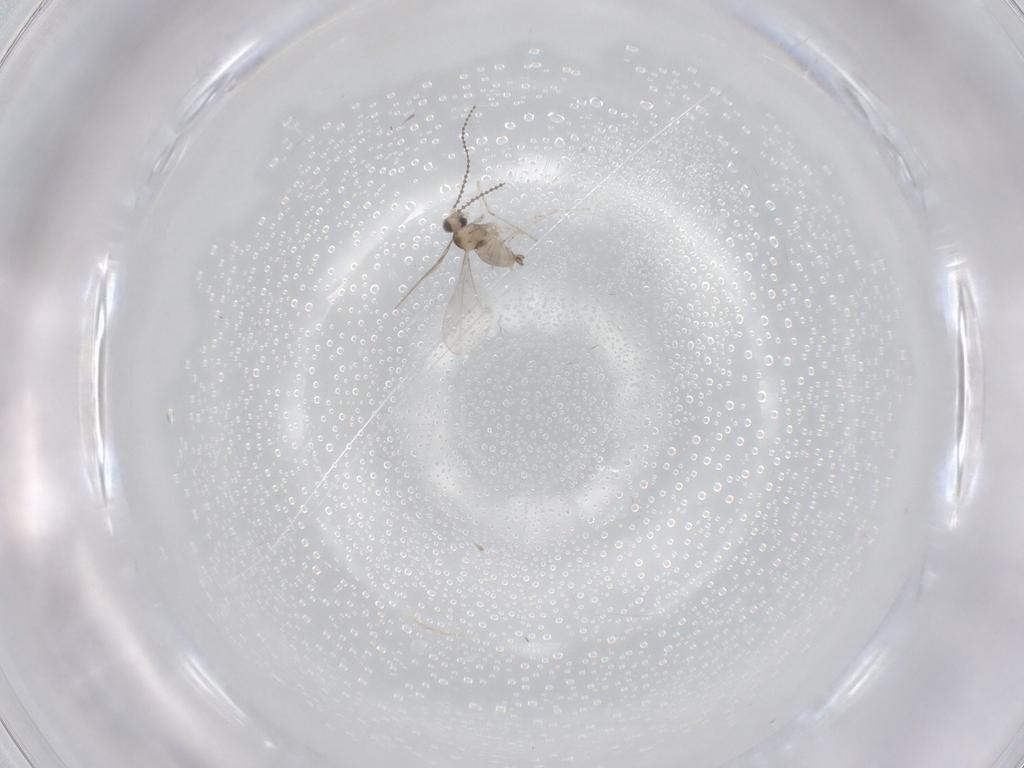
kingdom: Animalia
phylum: Arthropoda
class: Insecta
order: Diptera
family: Cecidomyiidae
